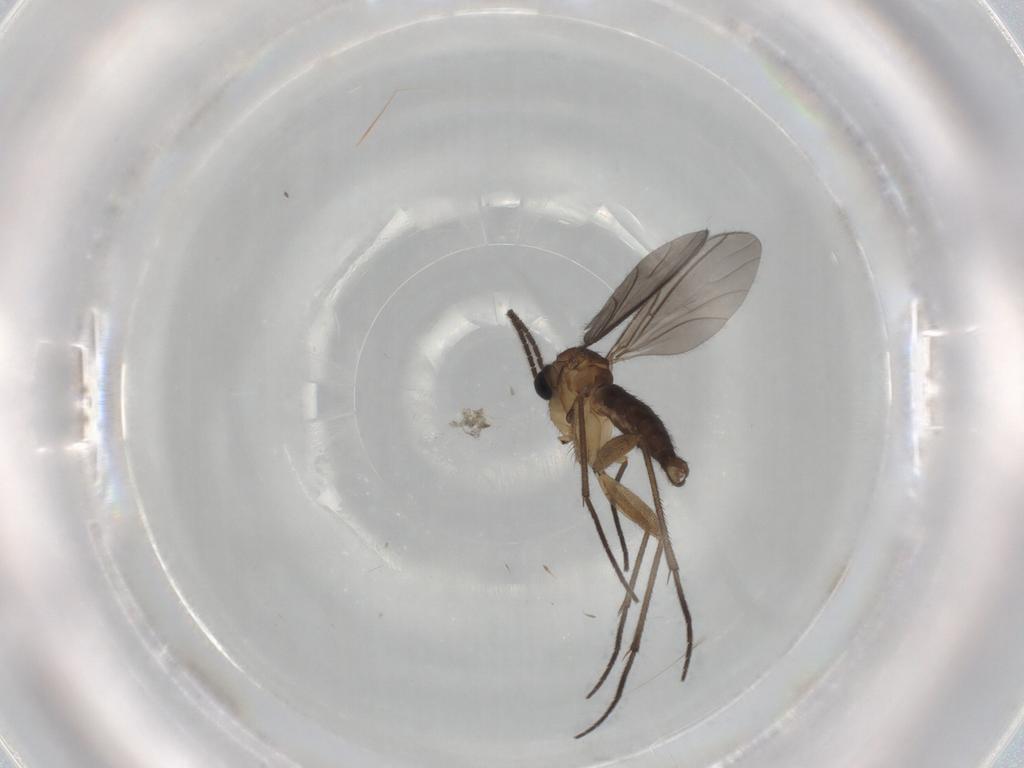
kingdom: Animalia
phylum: Arthropoda
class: Insecta
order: Diptera
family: Sciaridae
